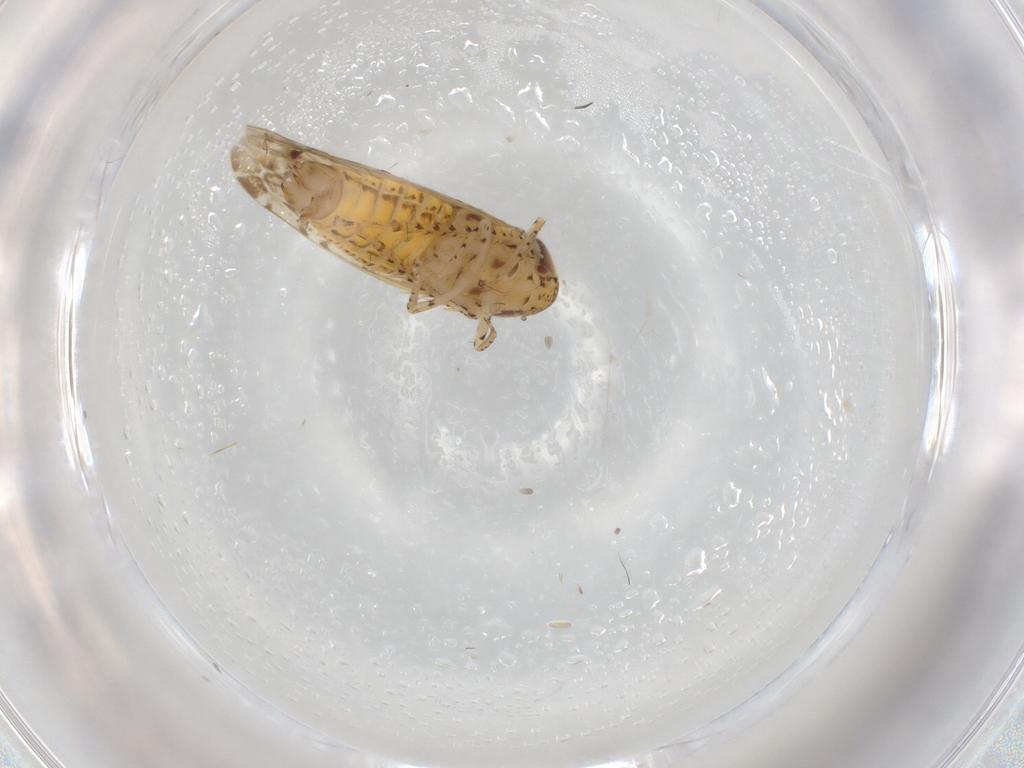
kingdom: Animalia
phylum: Arthropoda
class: Insecta
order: Hemiptera
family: Cicadellidae
